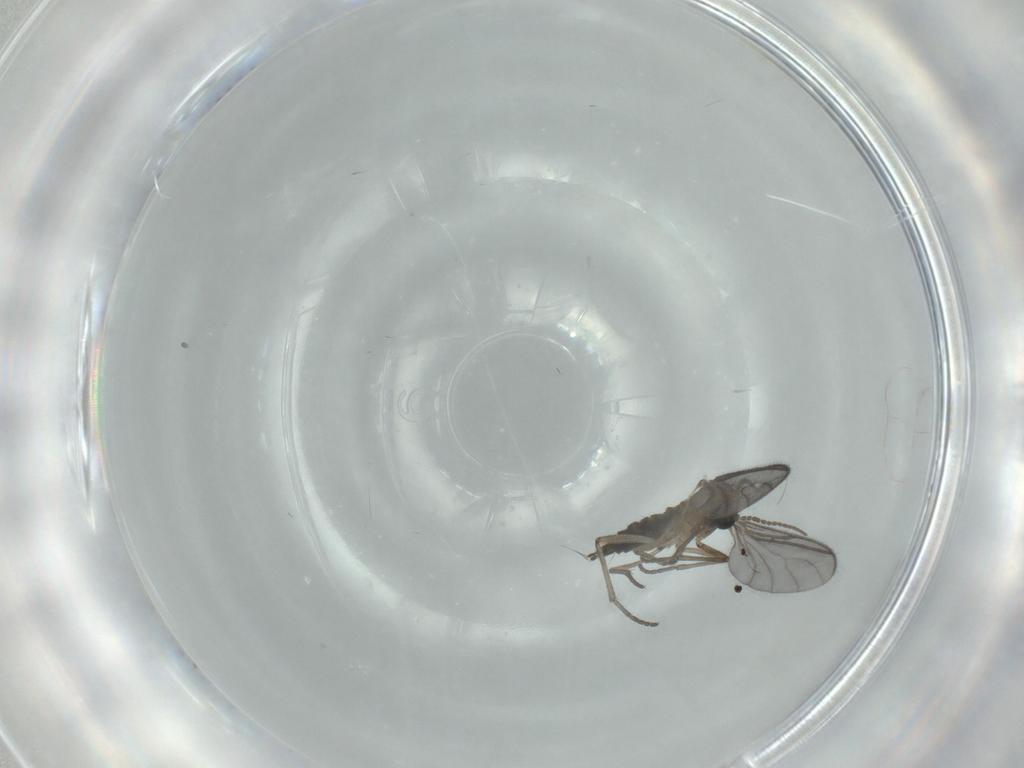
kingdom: Animalia
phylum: Arthropoda
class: Insecta
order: Diptera
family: Sciaridae
